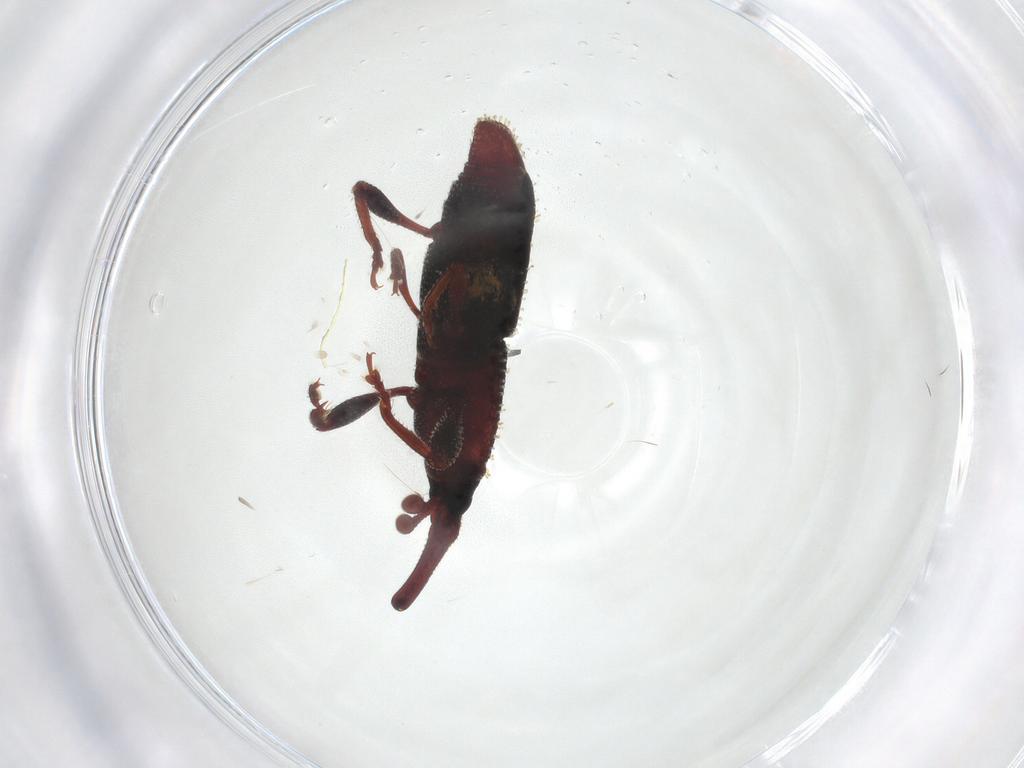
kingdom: Animalia
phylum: Arthropoda
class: Insecta
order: Coleoptera
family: Curculionidae
